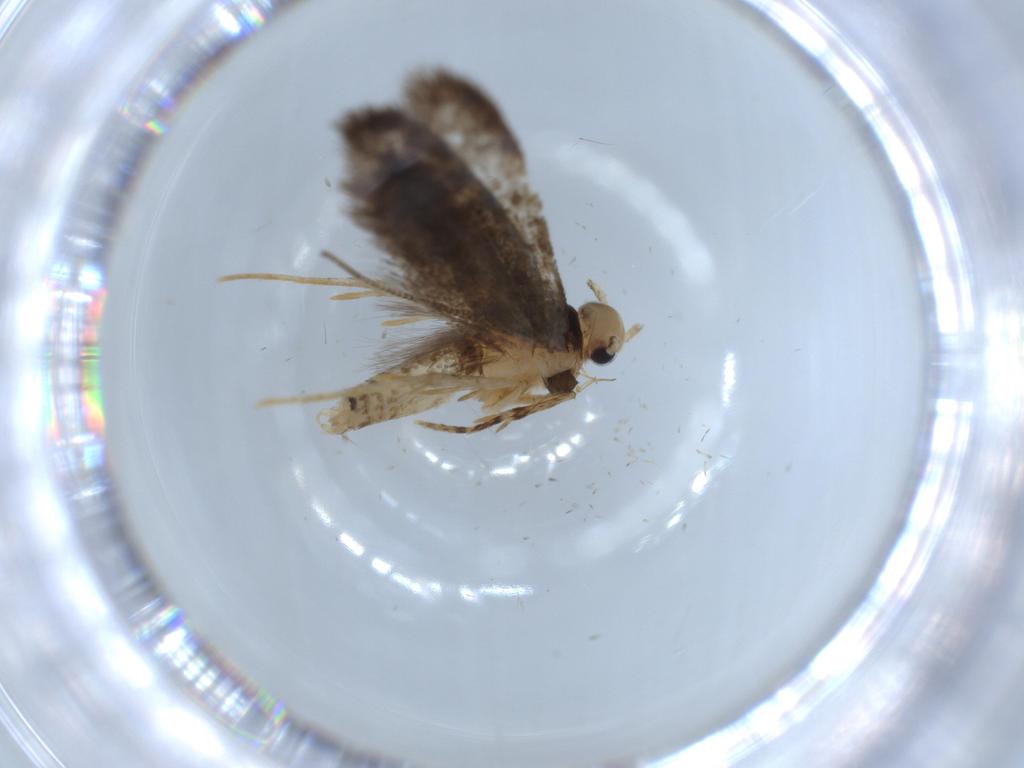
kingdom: Animalia
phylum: Arthropoda
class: Insecta
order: Lepidoptera
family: Tineidae
